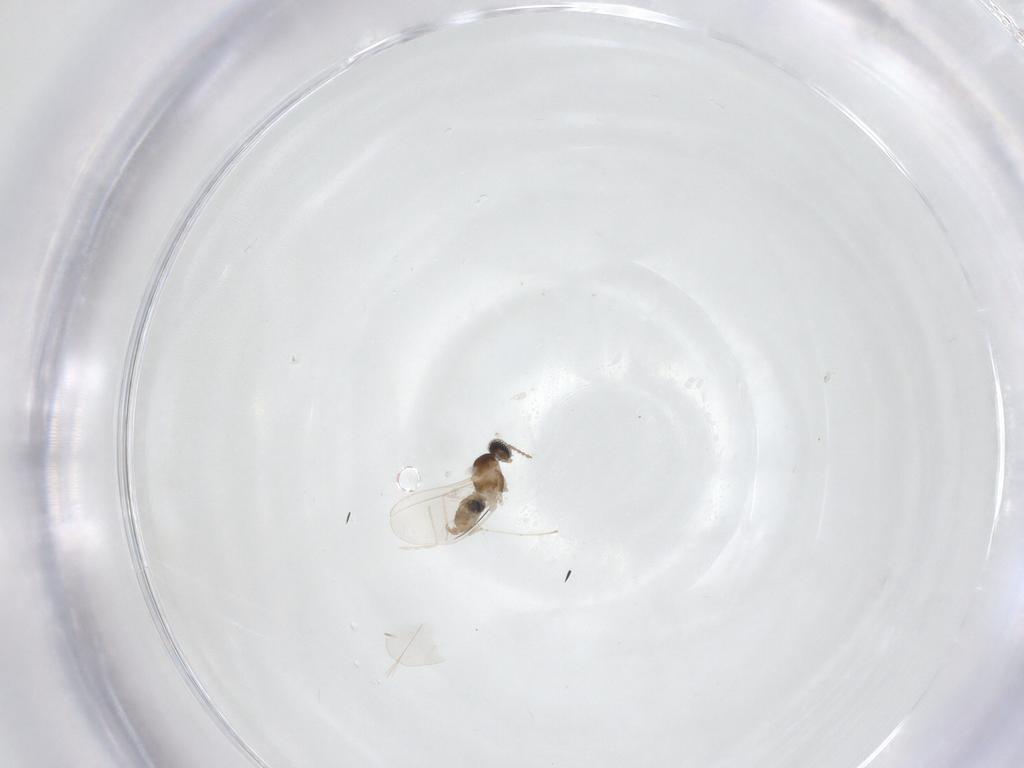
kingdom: Animalia
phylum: Arthropoda
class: Insecta
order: Diptera
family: Cecidomyiidae
